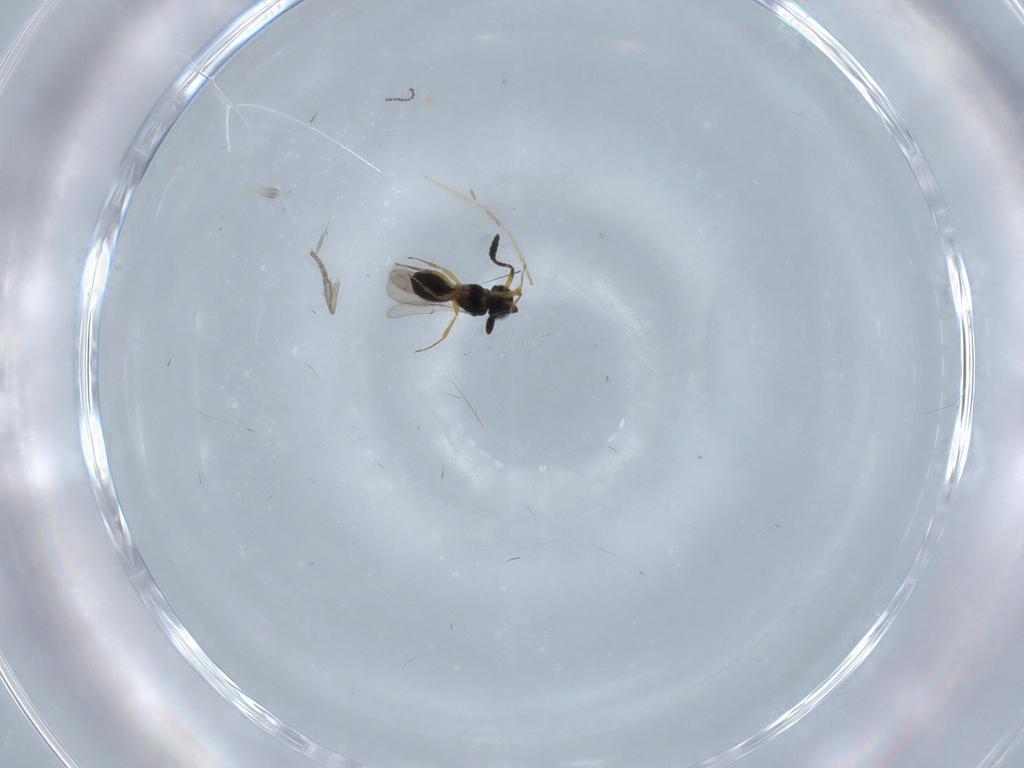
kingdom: Animalia
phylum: Arthropoda
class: Insecta
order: Hymenoptera
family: Scelionidae
